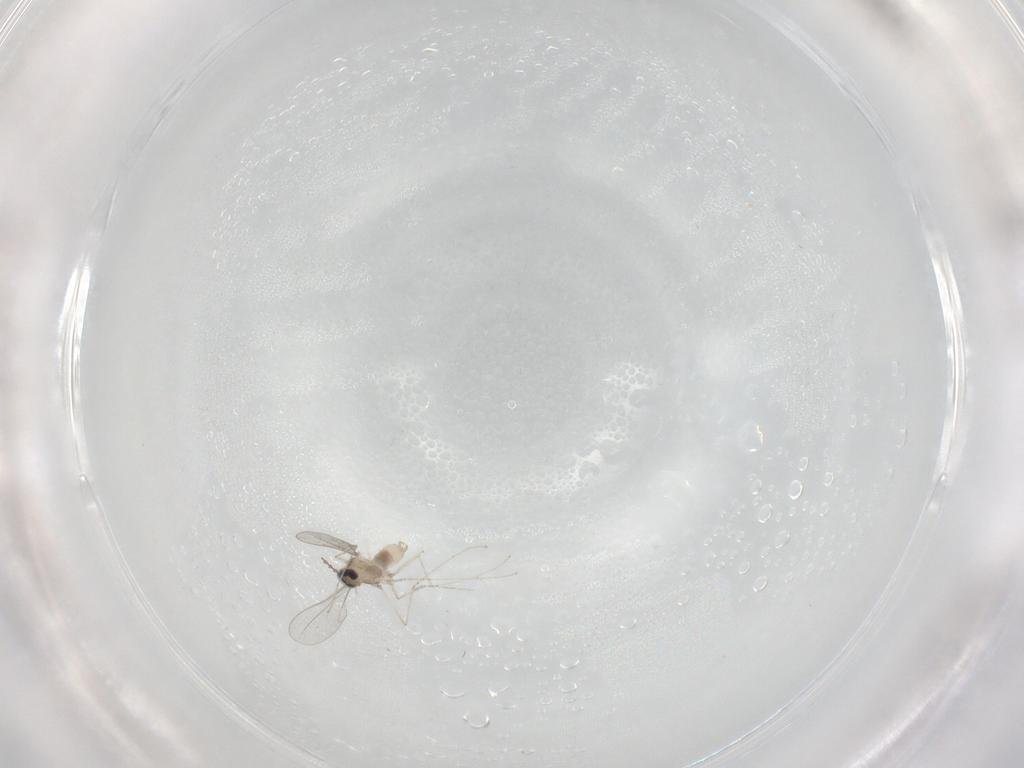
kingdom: Animalia
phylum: Arthropoda
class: Insecta
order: Diptera
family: Cecidomyiidae
